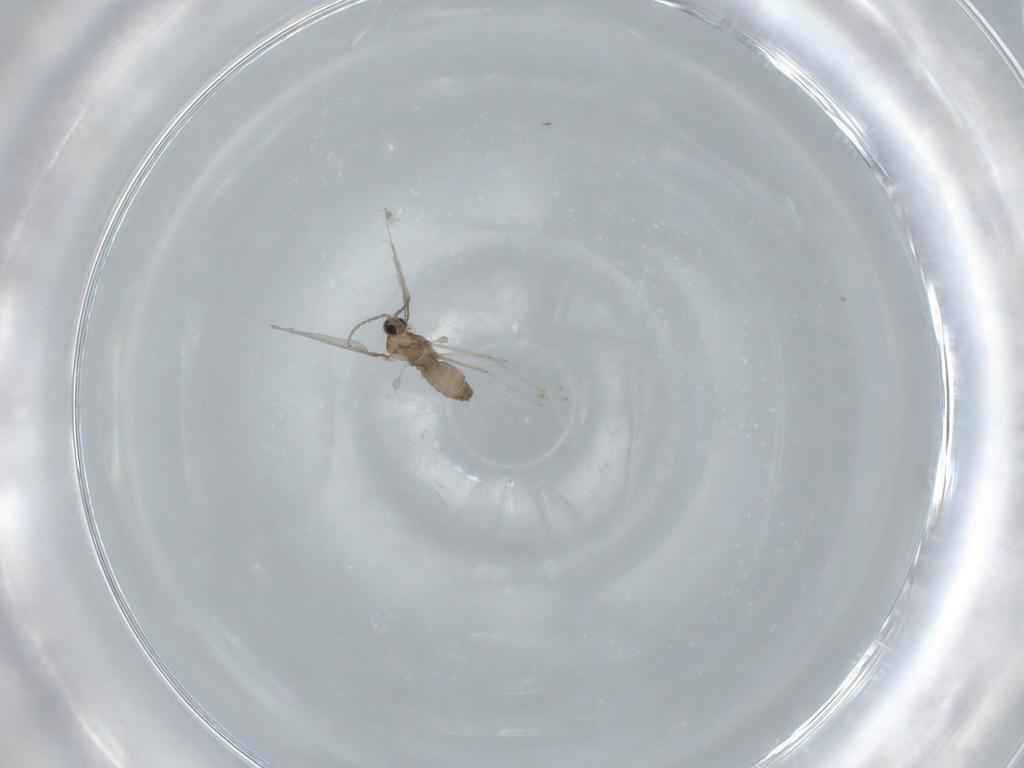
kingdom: Animalia
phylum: Arthropoda
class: Insecta
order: Diptera
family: Cecidomyiidae
